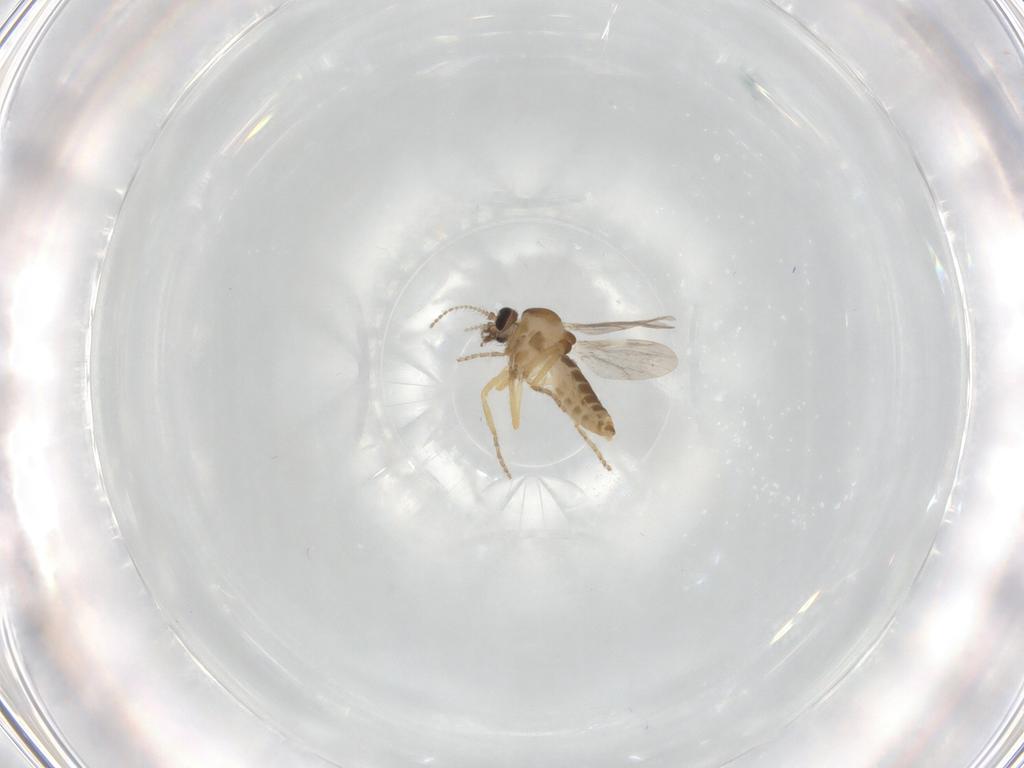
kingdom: Animalia
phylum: Arthropoda
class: Insecta
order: Diptera
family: Ceratopogonidae
